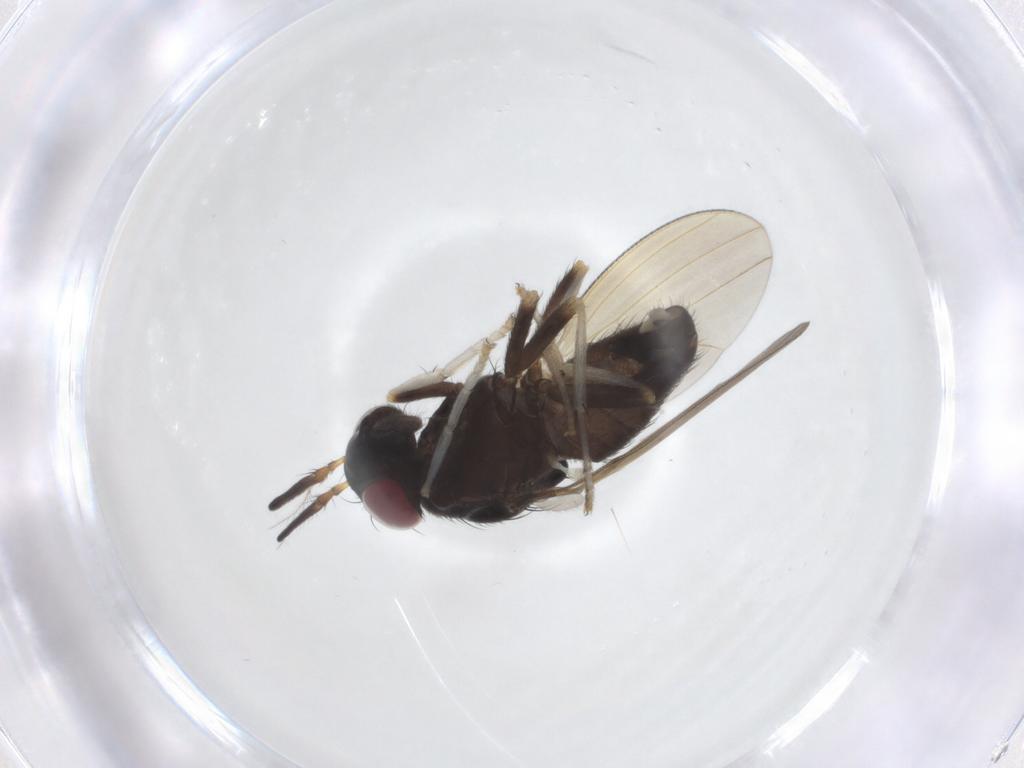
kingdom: Animalia
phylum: Arthropoda
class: Insecta
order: Diptera
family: Lauxaniidae
